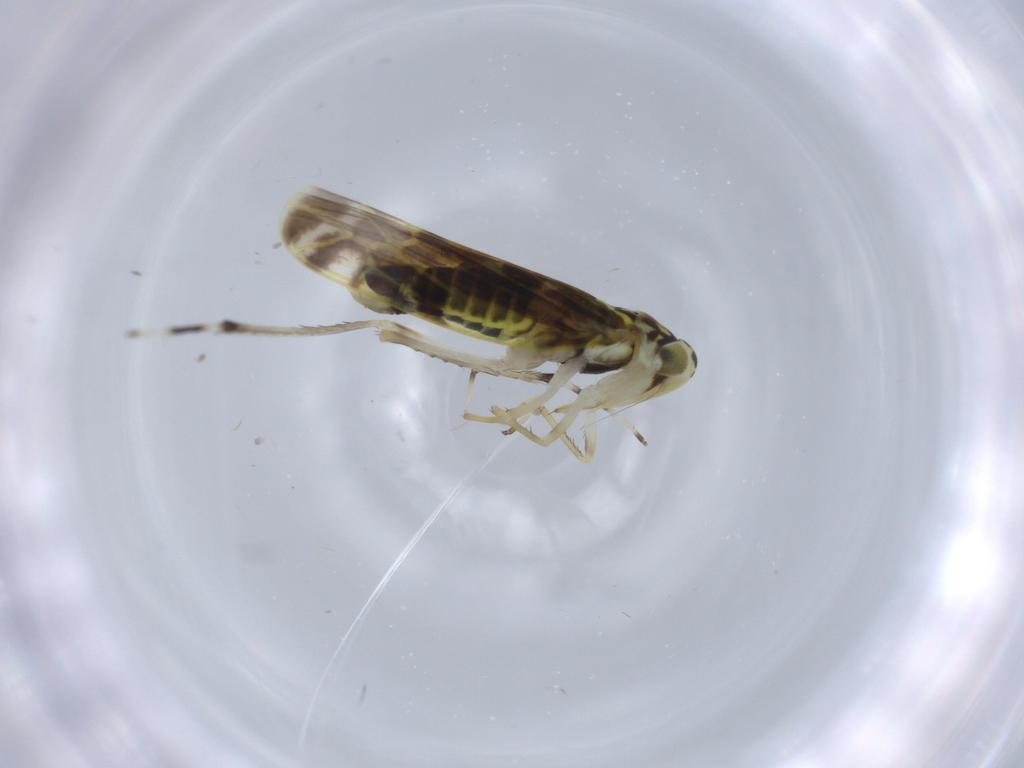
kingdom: Animalia
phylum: Arthropoda
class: Insecta
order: Hemiptera
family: Cicadellidae
